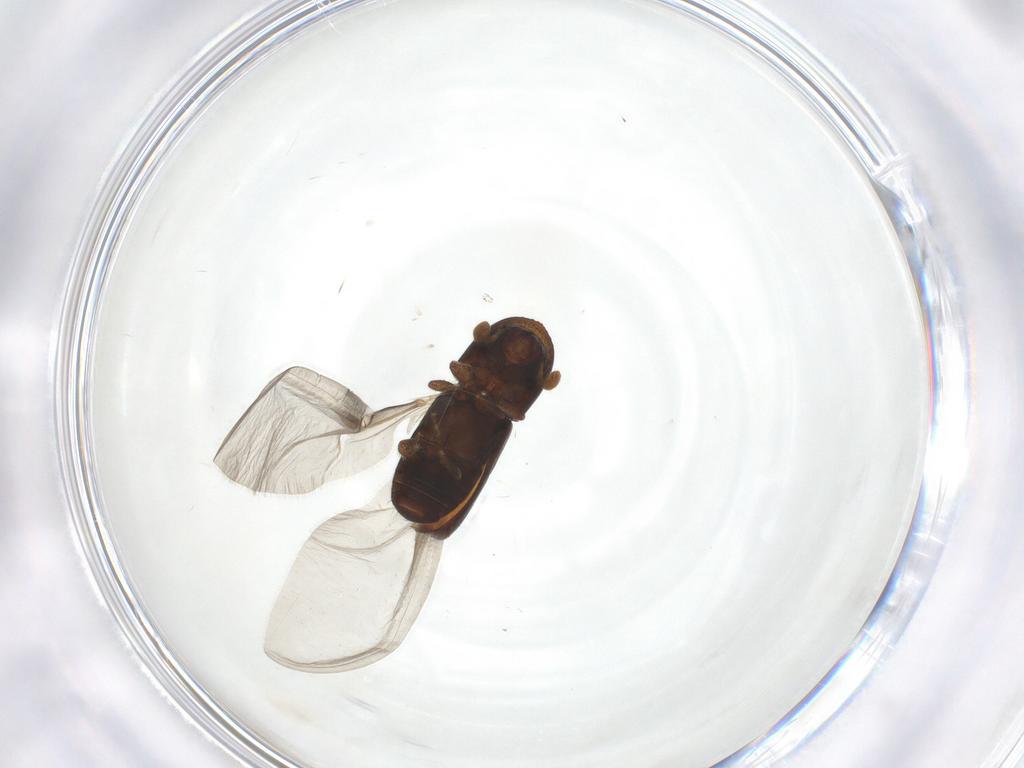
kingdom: Animalia
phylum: Arthropoda
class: Insecta
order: Coleoptera
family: Curculionidae
